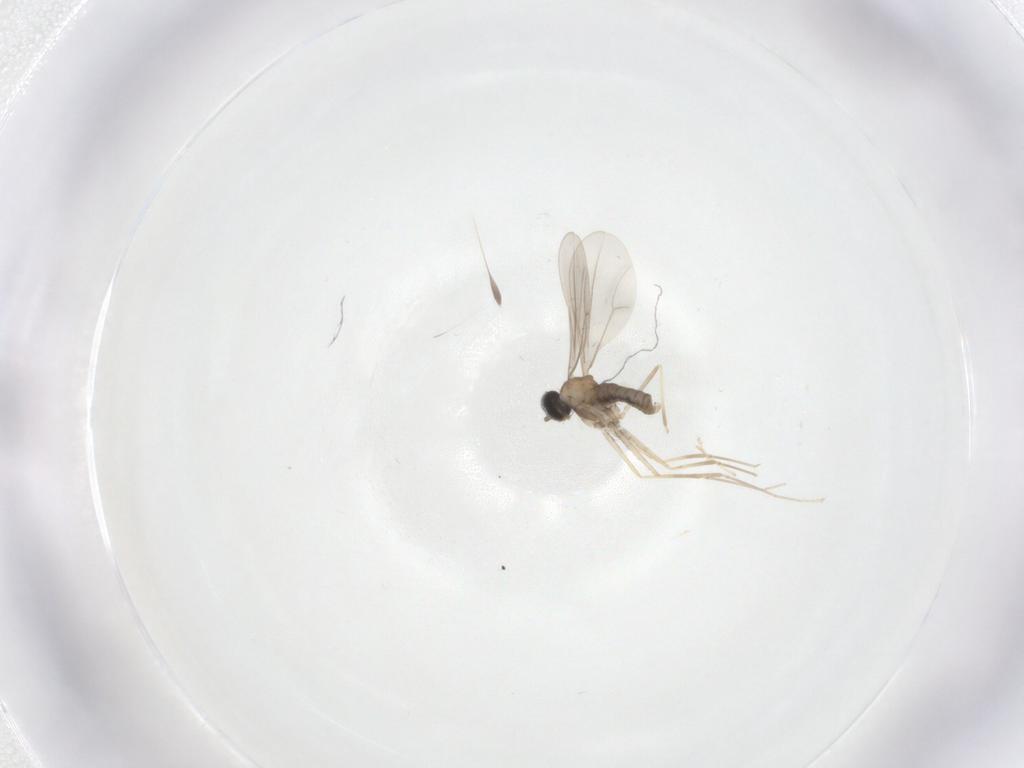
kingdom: Animalia
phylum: Arthropoda
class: Insecta
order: Diptera
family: Cecidomyiidae
